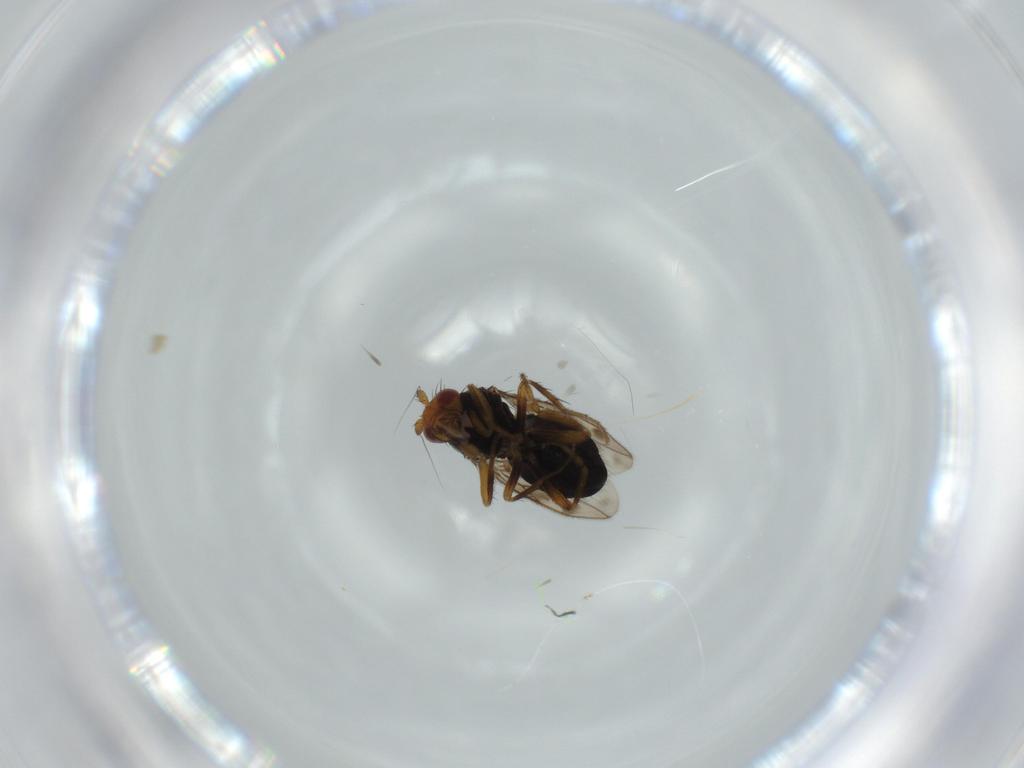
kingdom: Animalia
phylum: Arthropoda
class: Insecta
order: Diptera
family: Sphaeroceridae
